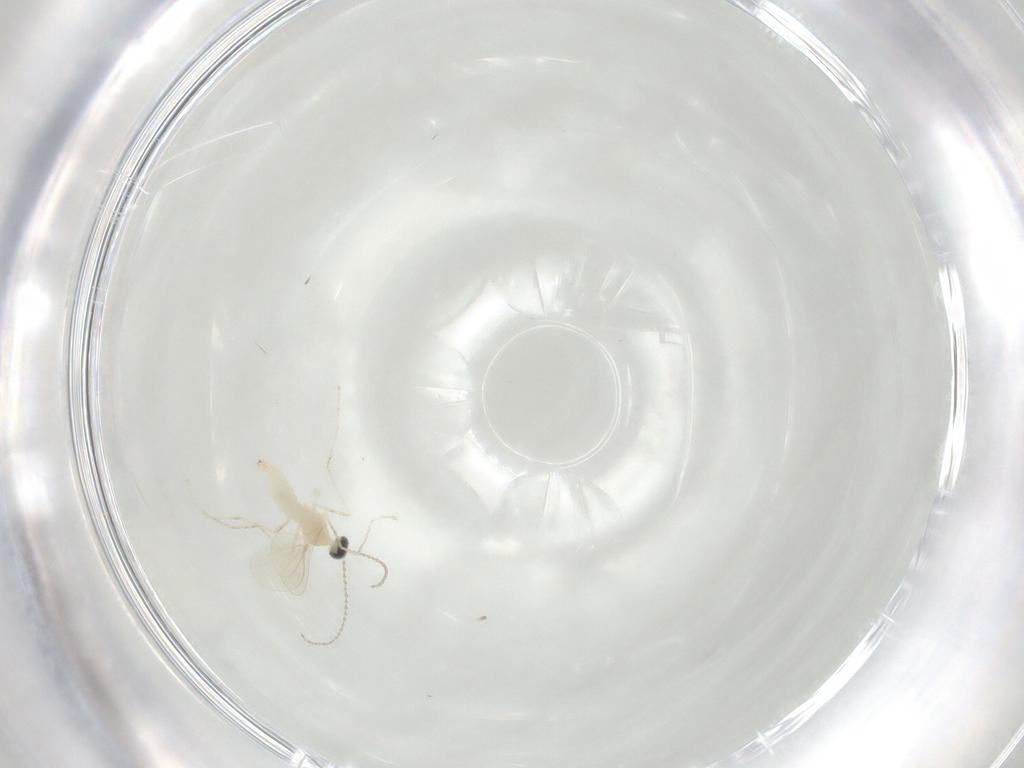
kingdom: Animalia
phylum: Arthropoda
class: Insecta
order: Diptera
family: Cecidomyiidae
